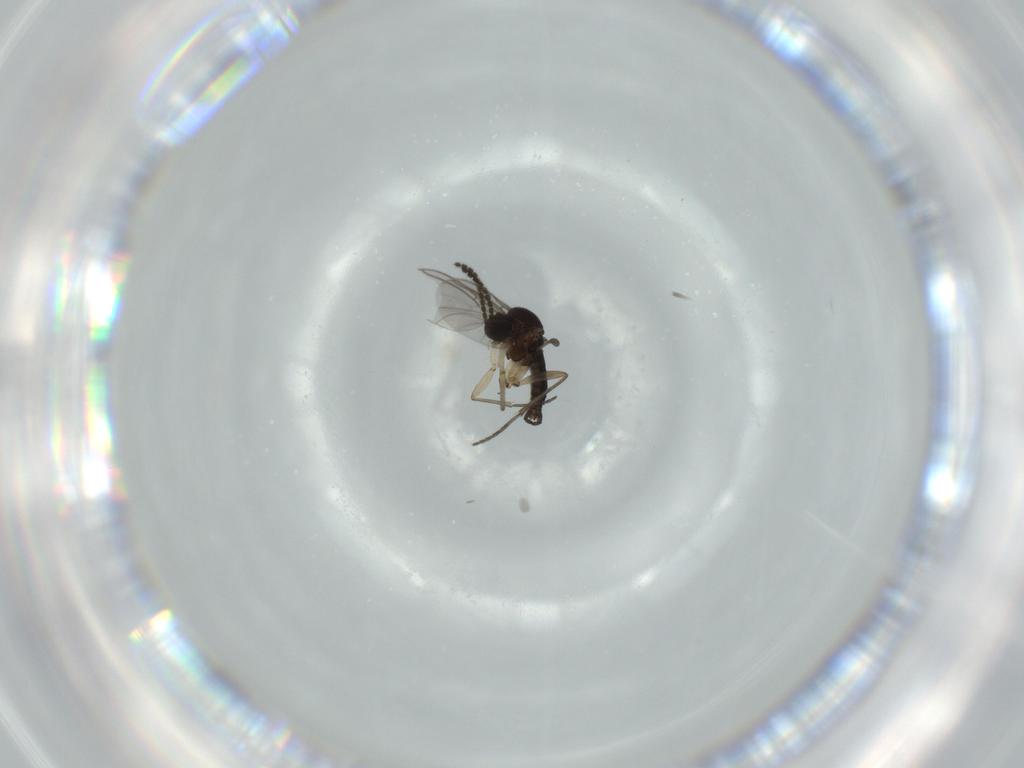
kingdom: Animalia
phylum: Arthropoda
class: Insecta
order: Diptera
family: Sciaridae
